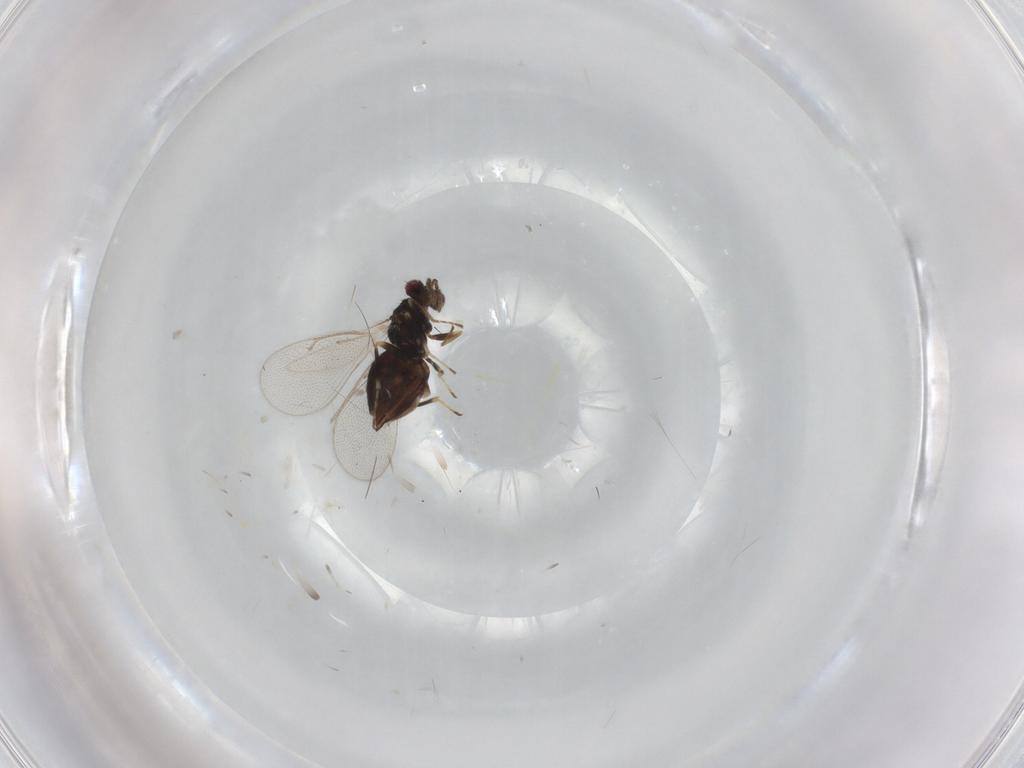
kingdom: Animalia
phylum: Arthropoda
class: Insecta
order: Hymenoptera
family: Eulophidae
